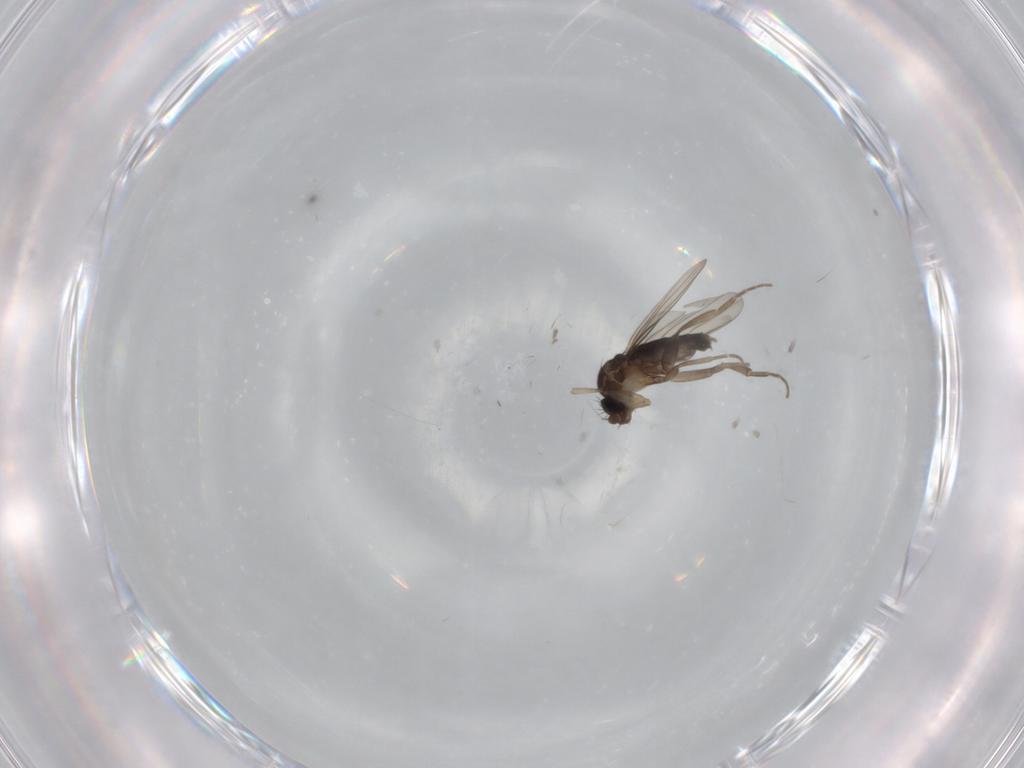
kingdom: Animalia
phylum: Arthropoda
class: Insecta
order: Diptera
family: Phoridae
